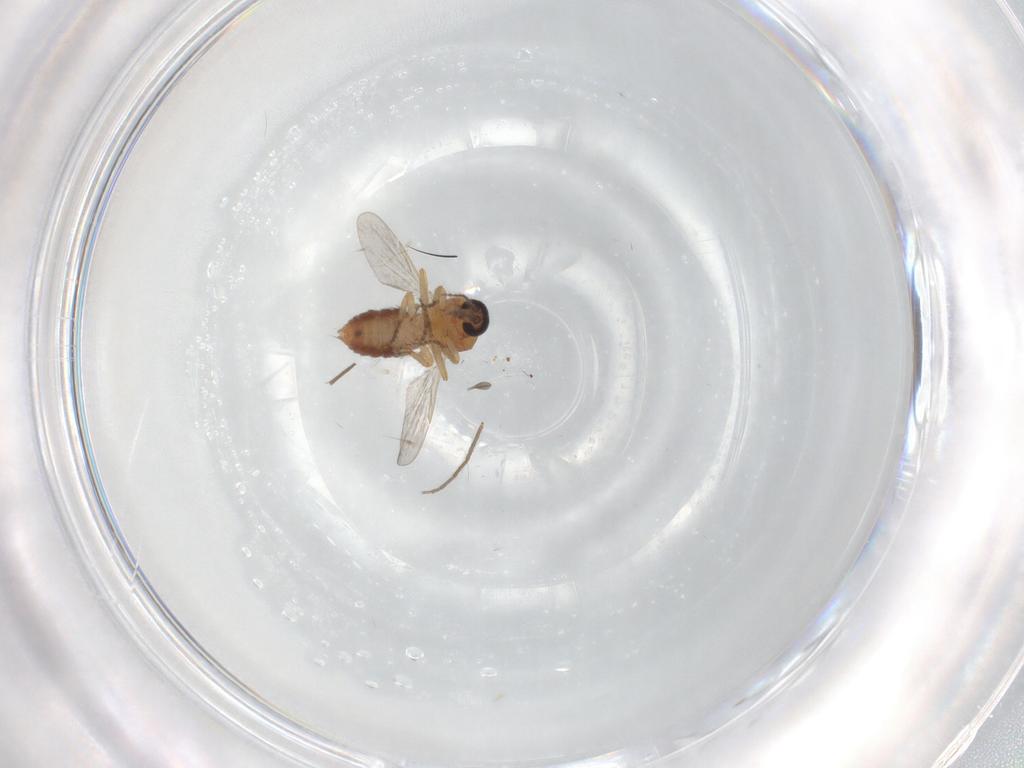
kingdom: Animalia
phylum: Arthropoda
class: Insecta
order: Diptera
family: Ceratopogonidae
